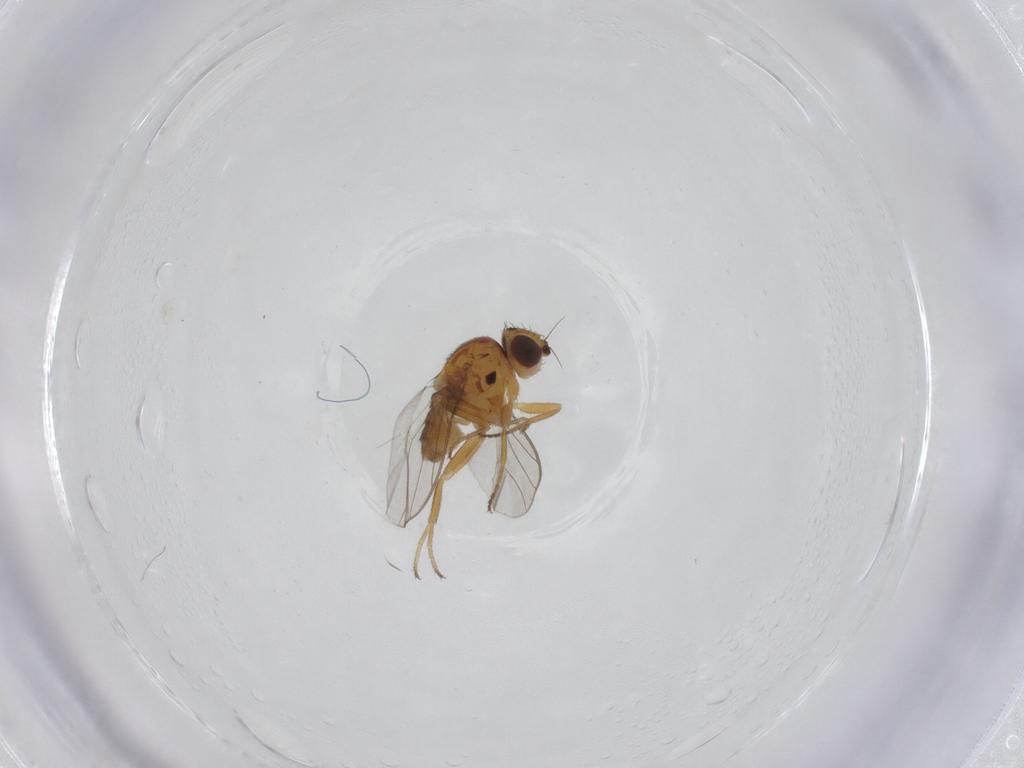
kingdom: Animalia
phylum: Arthropoda
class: Insecta
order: Diptera
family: Chloropidae
